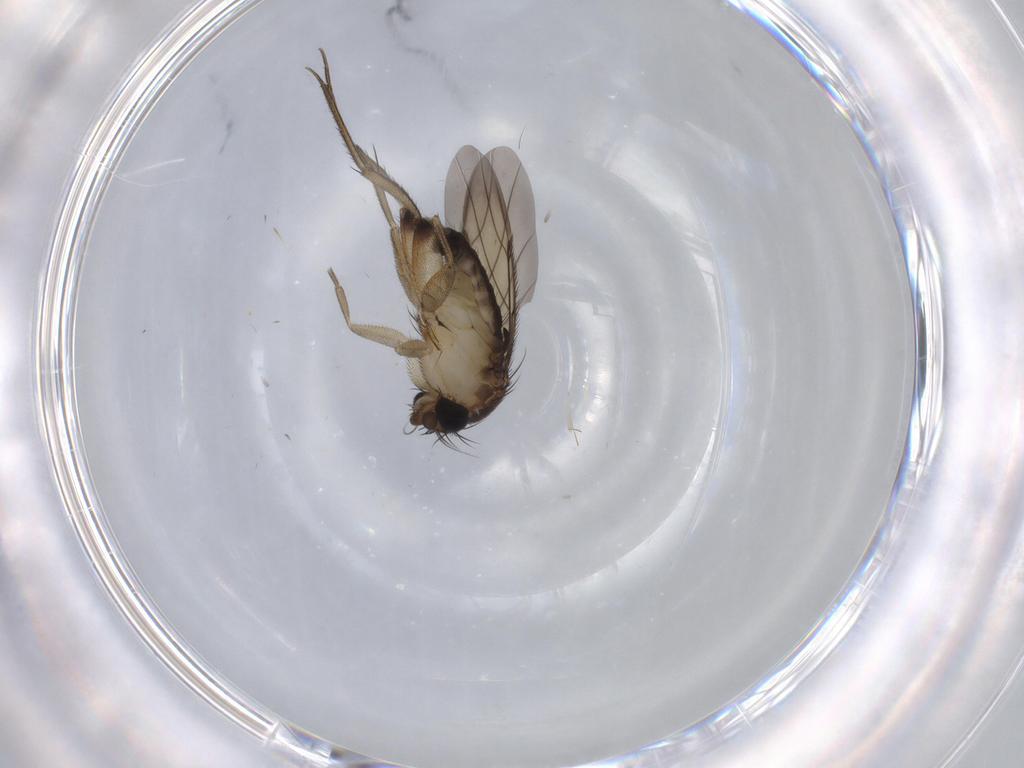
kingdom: Animalia
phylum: Arthropoda
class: Insecta
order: Diptera
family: Phoridae
